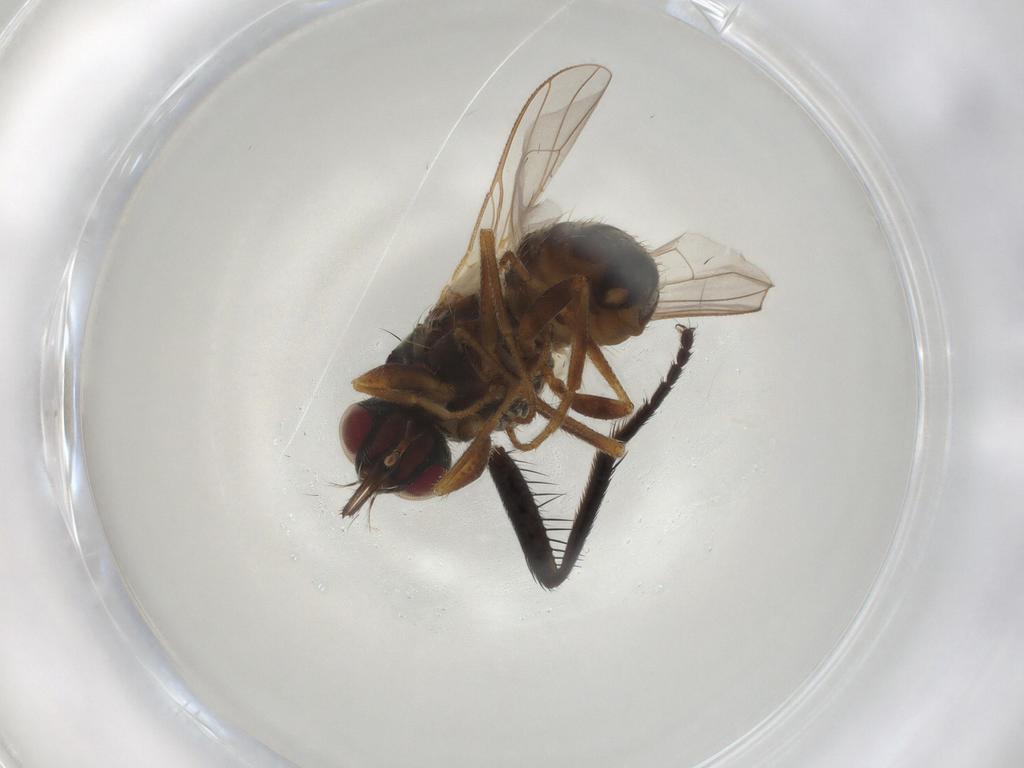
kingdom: Animalia
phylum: Arthropoda
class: Insecta
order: Diptera
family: Muscidae
